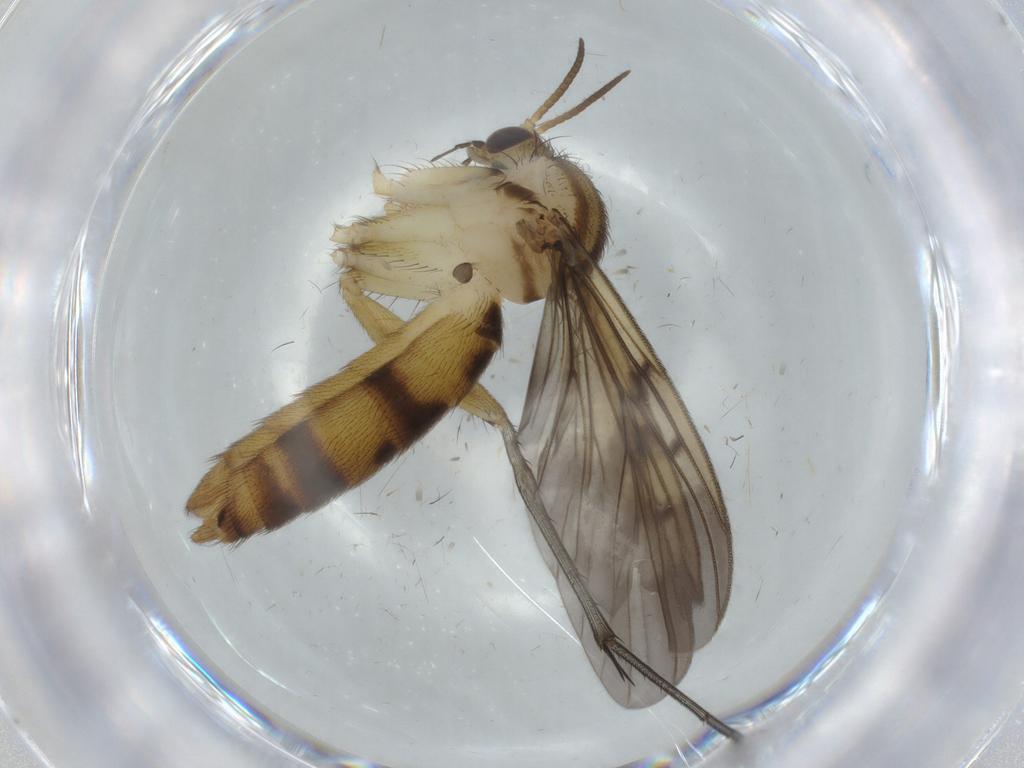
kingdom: Animalia
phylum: Arthropoda
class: Insecta
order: Diptera
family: Mycetophilidae
